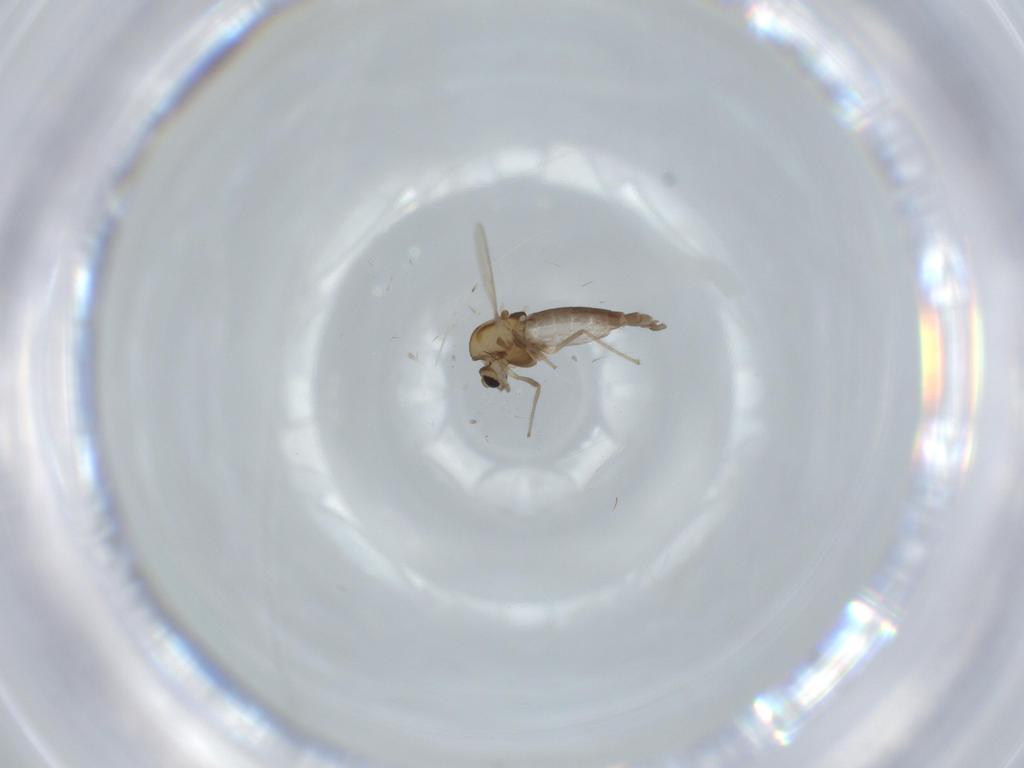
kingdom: Animalia
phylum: Arthropoda
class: Insecta
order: Diptera
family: Chironomidae
